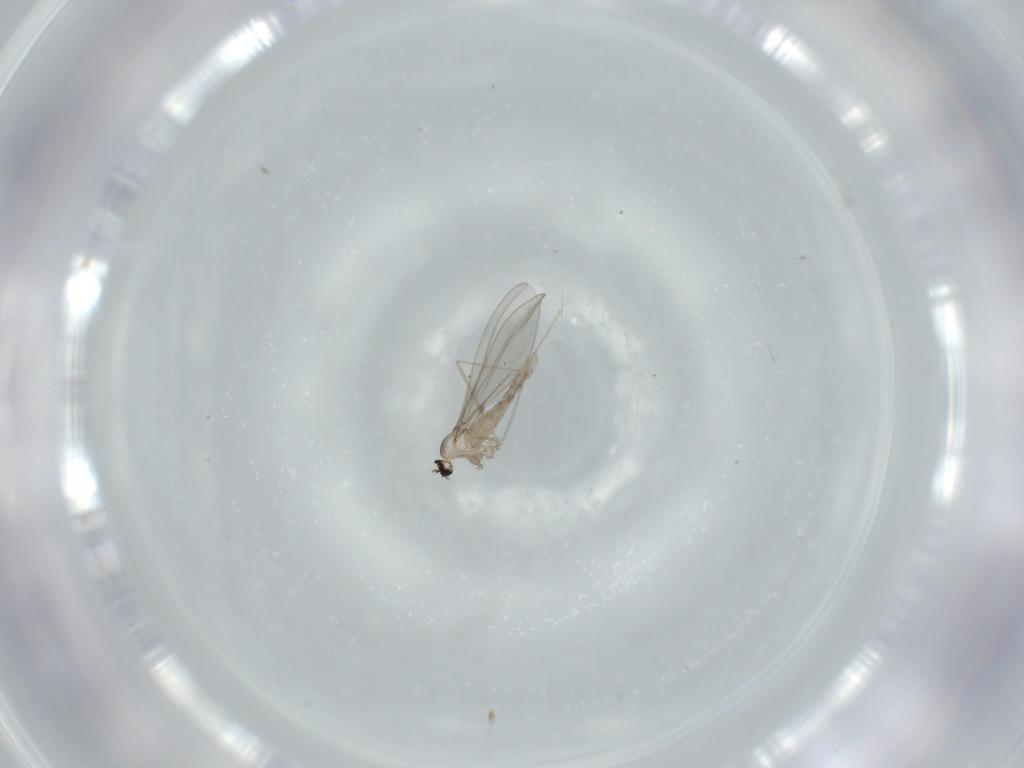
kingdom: Animalia
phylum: Arthropoda
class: Insecta
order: Diptera
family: Cecidomyiidae
